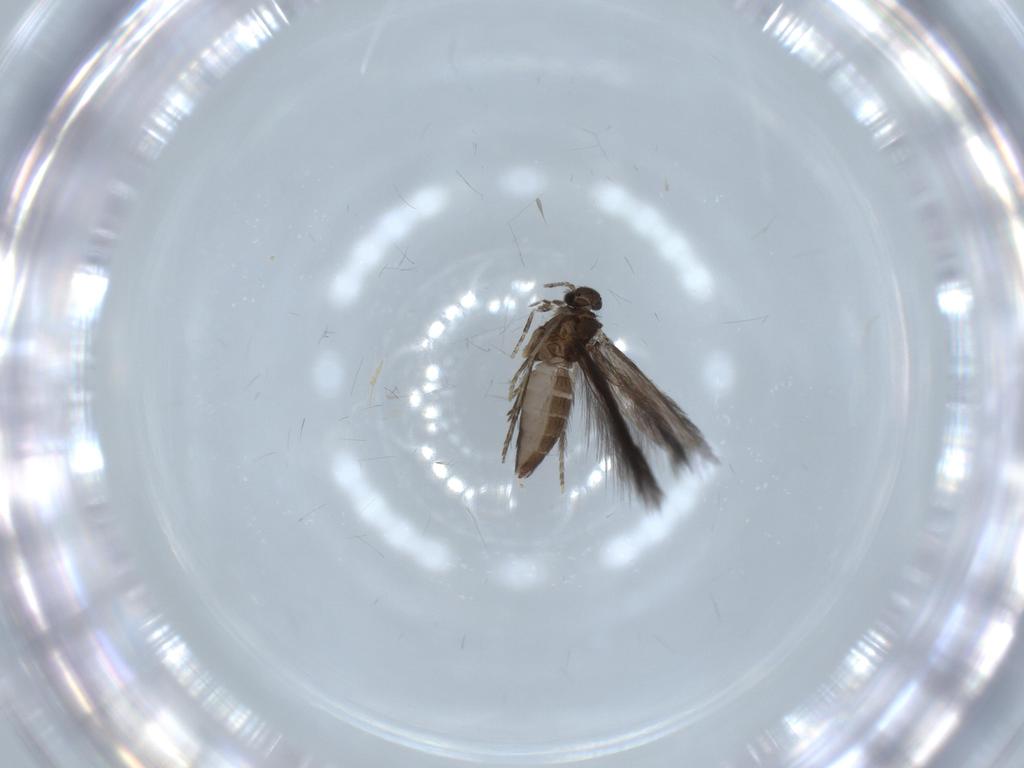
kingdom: Animalia
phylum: Arthropoda
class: Insecta
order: Trichoptera
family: Hydroptilidae
